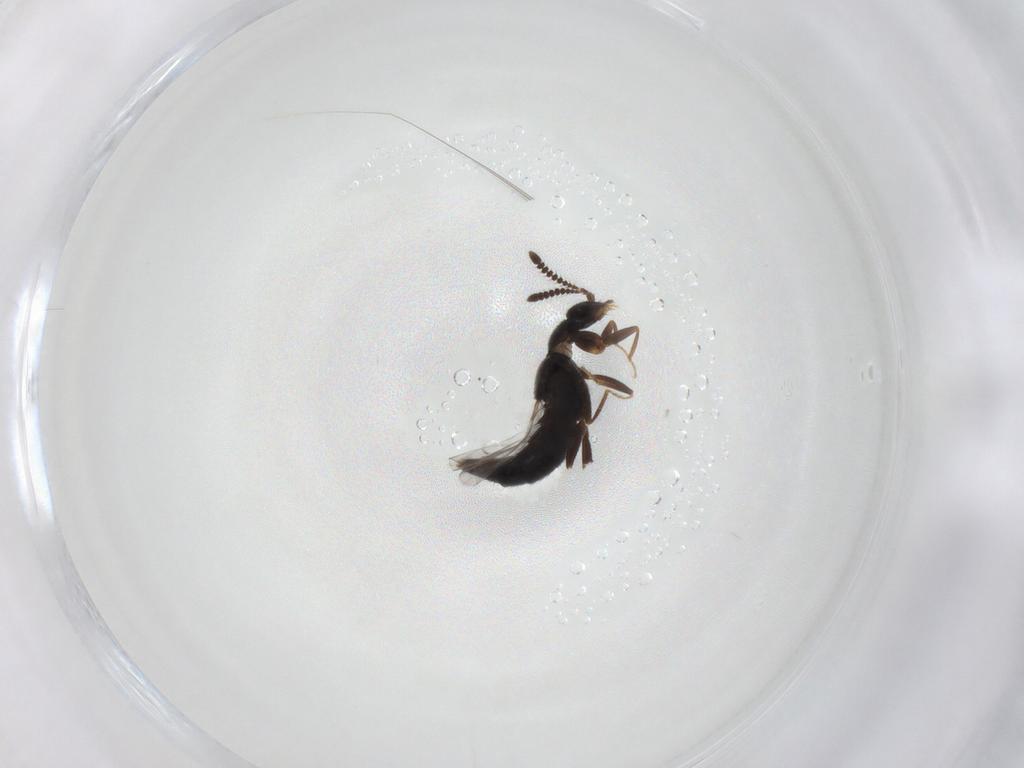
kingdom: Animalia
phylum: Arthropoda
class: Insecta
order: Coleoptera
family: Staphylinidae
